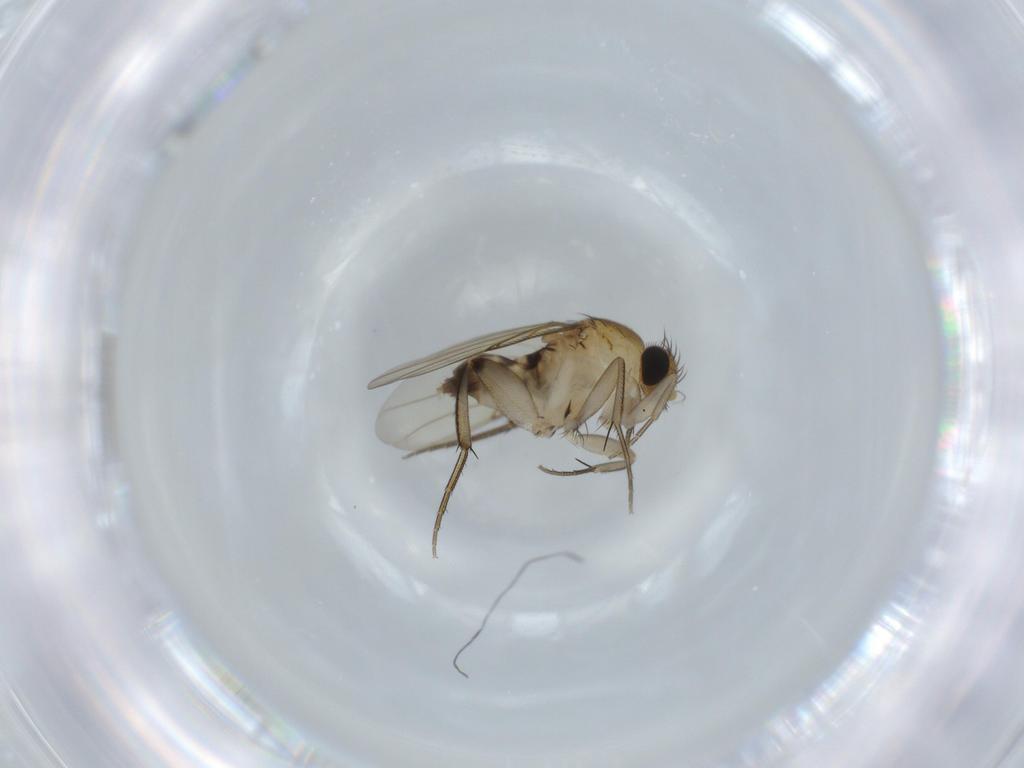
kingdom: Animalia
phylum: Arthropoda
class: Insecta
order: Diptera
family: Phoridae
